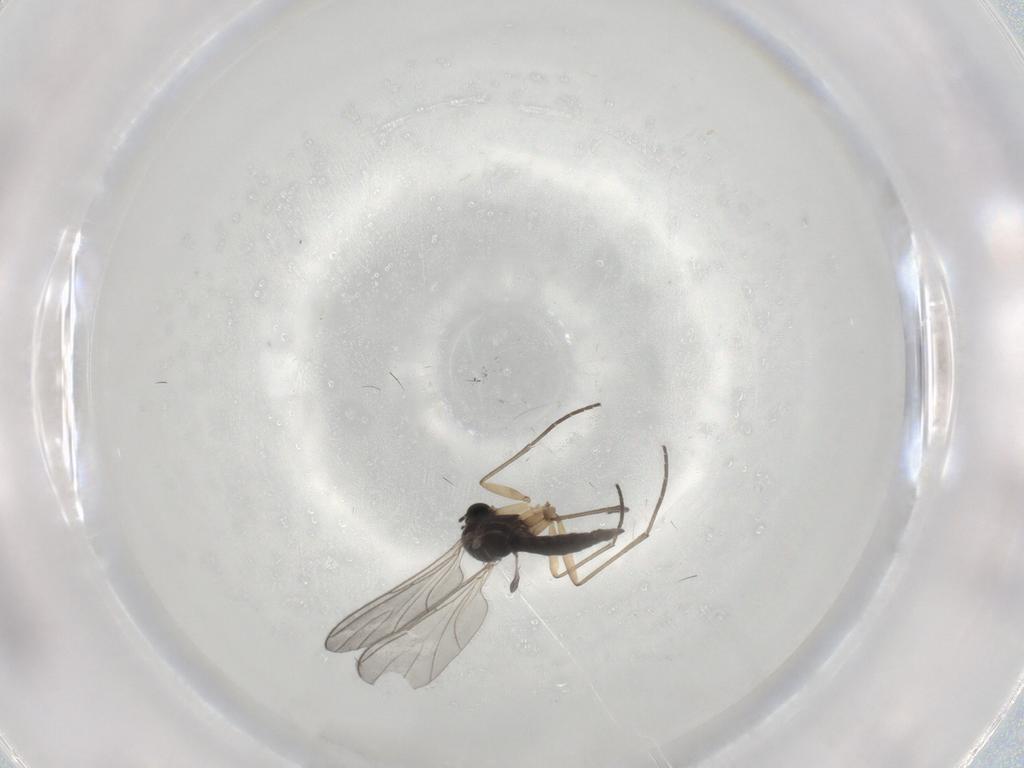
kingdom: Animalia
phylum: Arthropoda
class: Insecta
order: Diptera
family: Sciaridae
